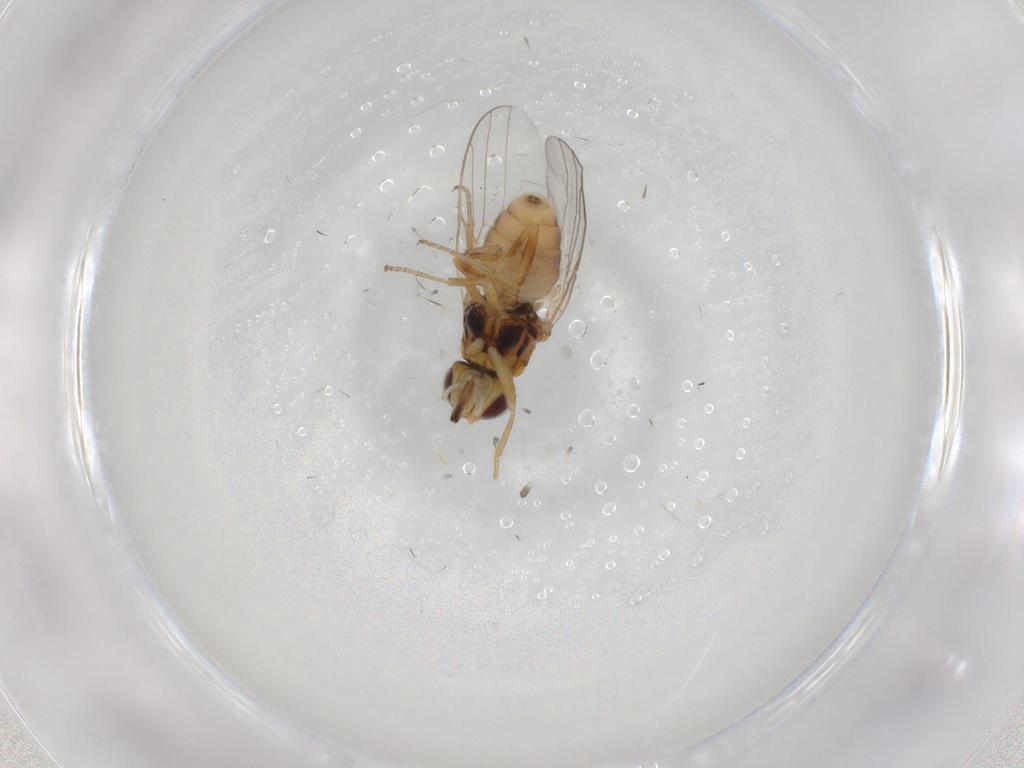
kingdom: Animalia
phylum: Arthropoda
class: Insecta
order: Diptera
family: Chloropidae
